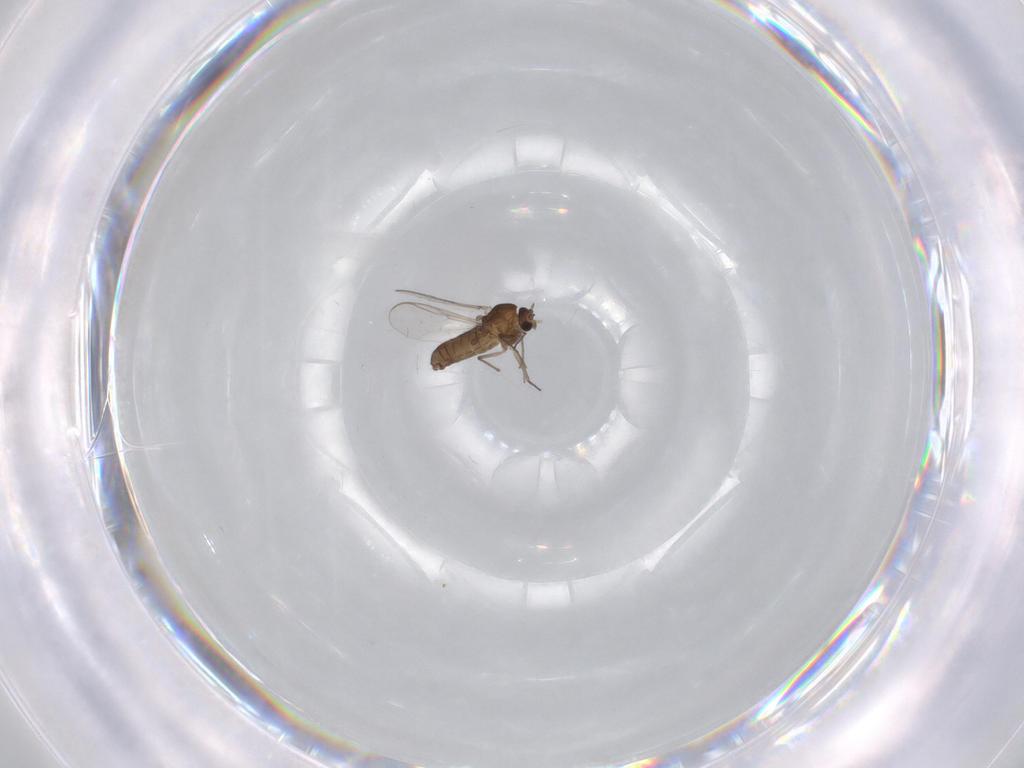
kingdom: Animalia
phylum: Arthropoda
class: Insecta
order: Diptera
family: Chironomidae
